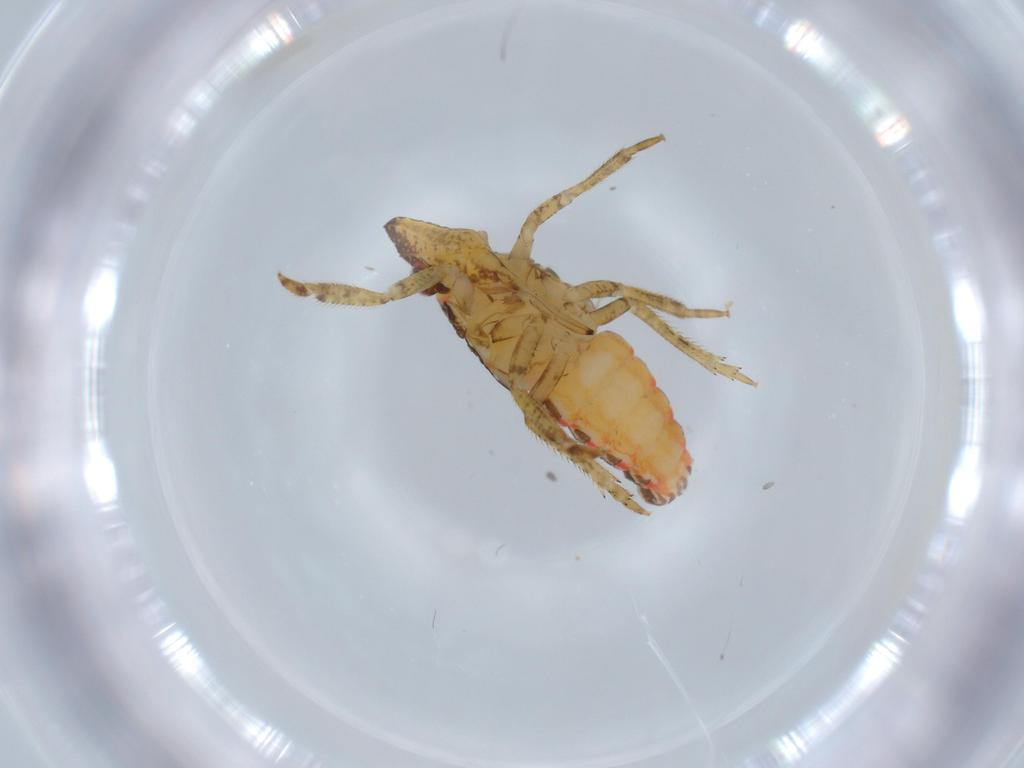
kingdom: Animalia
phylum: Arthropoda
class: Insecta
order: Hemiptera
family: Fulgoroidea_incertae_sedis
